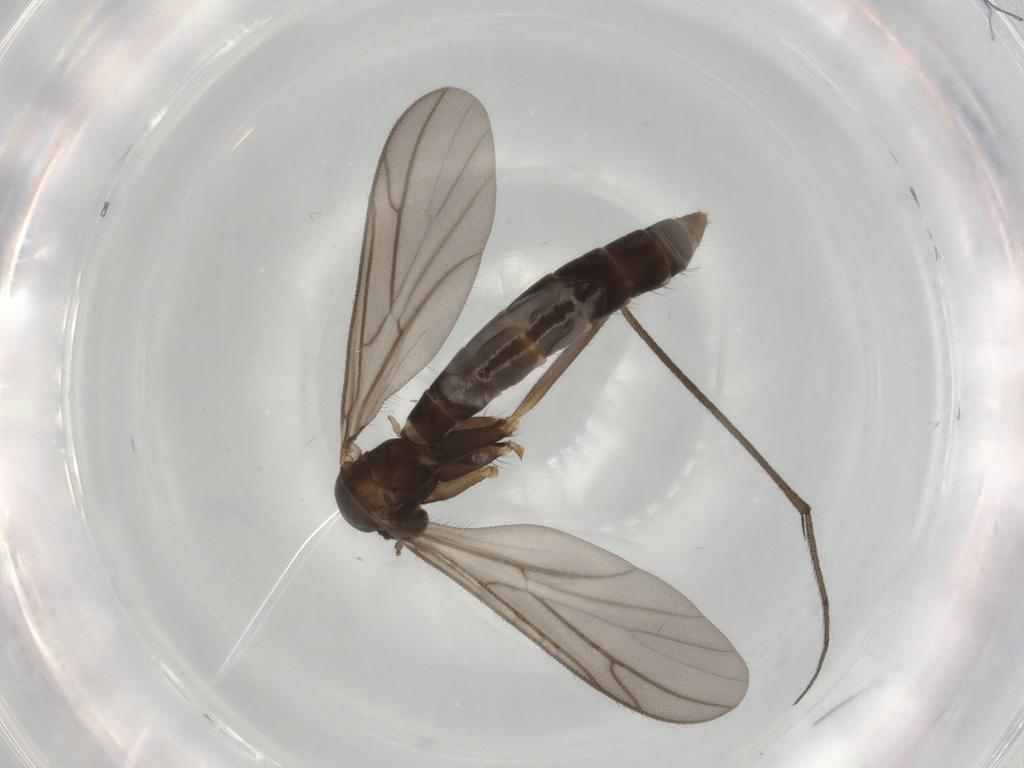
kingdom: Animalia
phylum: Arthropoda
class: Insecta
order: Diptera
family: Keroplatidae
